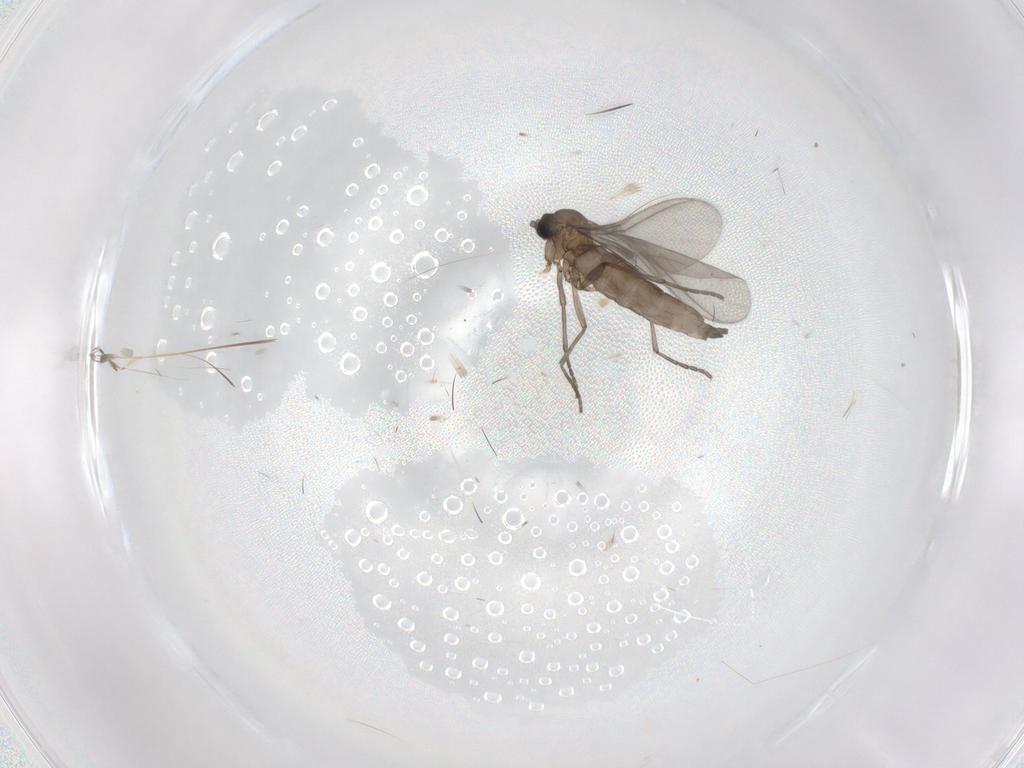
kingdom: Animalia
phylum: Arthropoda
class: Insecta
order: Diptera
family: Sciaridae
